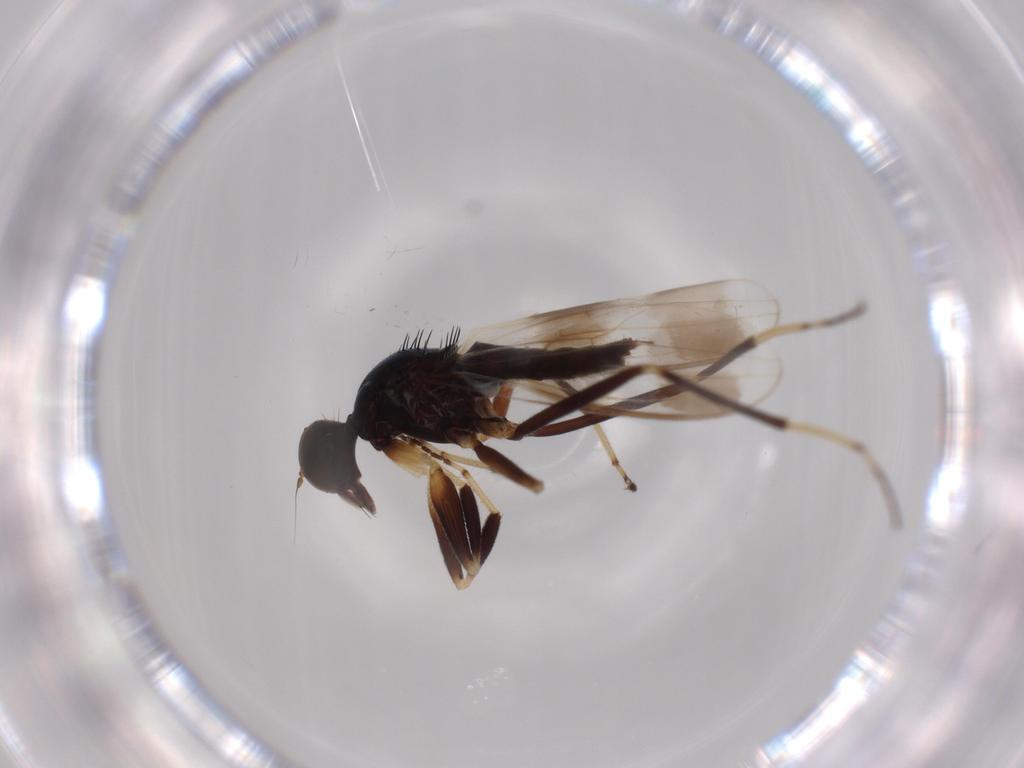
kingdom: Animalia
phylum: Arthropoda
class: Insecta
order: Diptera
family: Hybotidae
